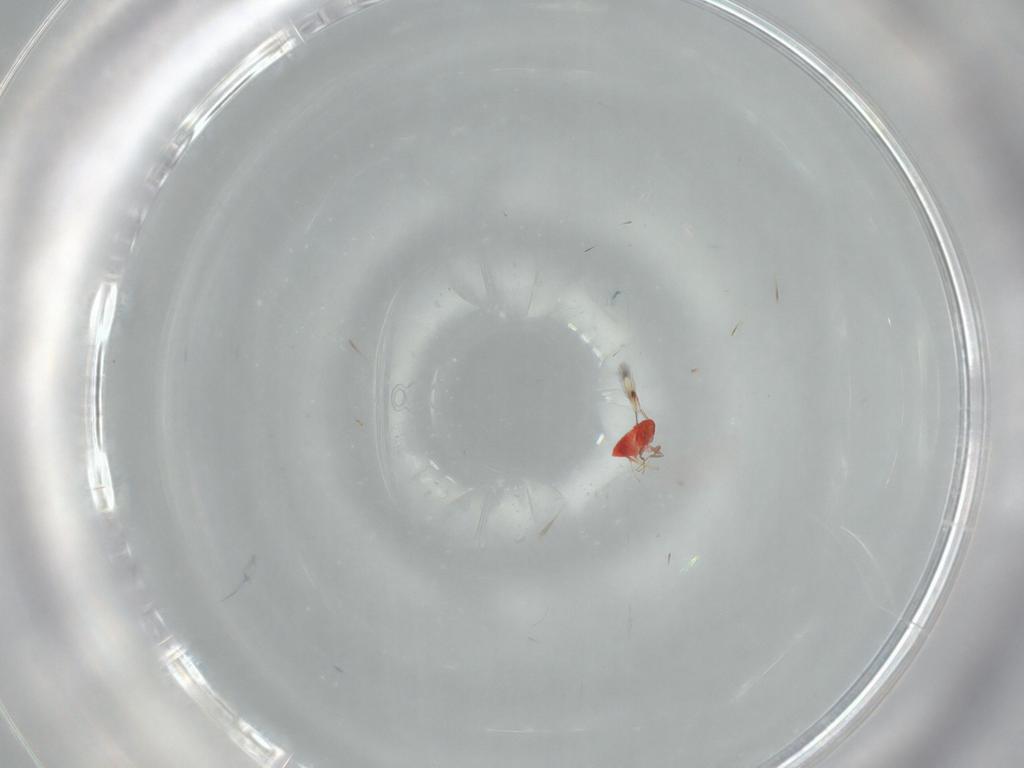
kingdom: Animalia
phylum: Arthropoda
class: Insecta
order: Hymenoptera
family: Trichogrammatidae
